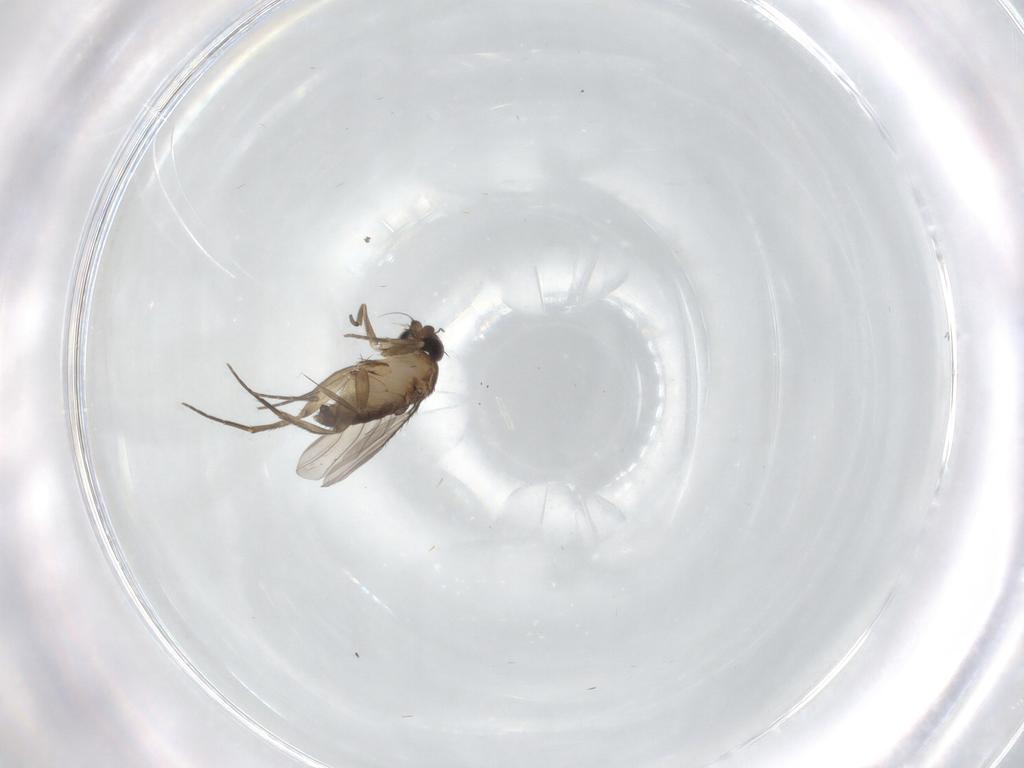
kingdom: Animalia
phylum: Arthropoda
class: Insecta
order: Diptera
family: Phoridae
